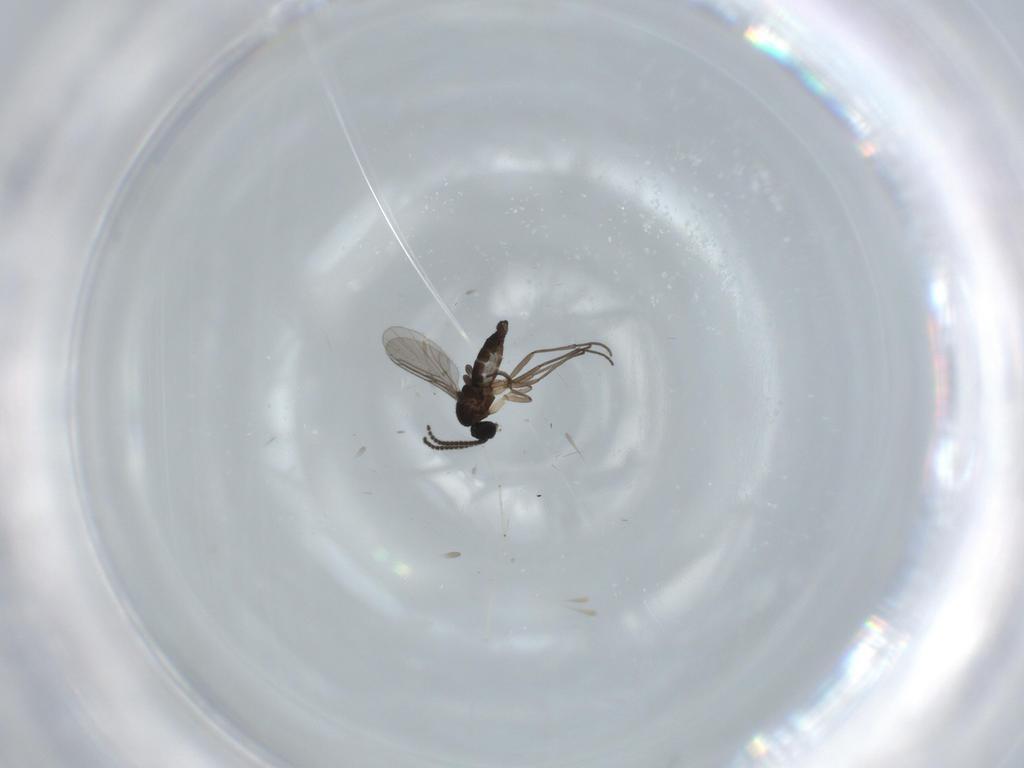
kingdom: Animalia
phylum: Arthropoda
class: Insecta
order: Diptera
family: Sciaridae
